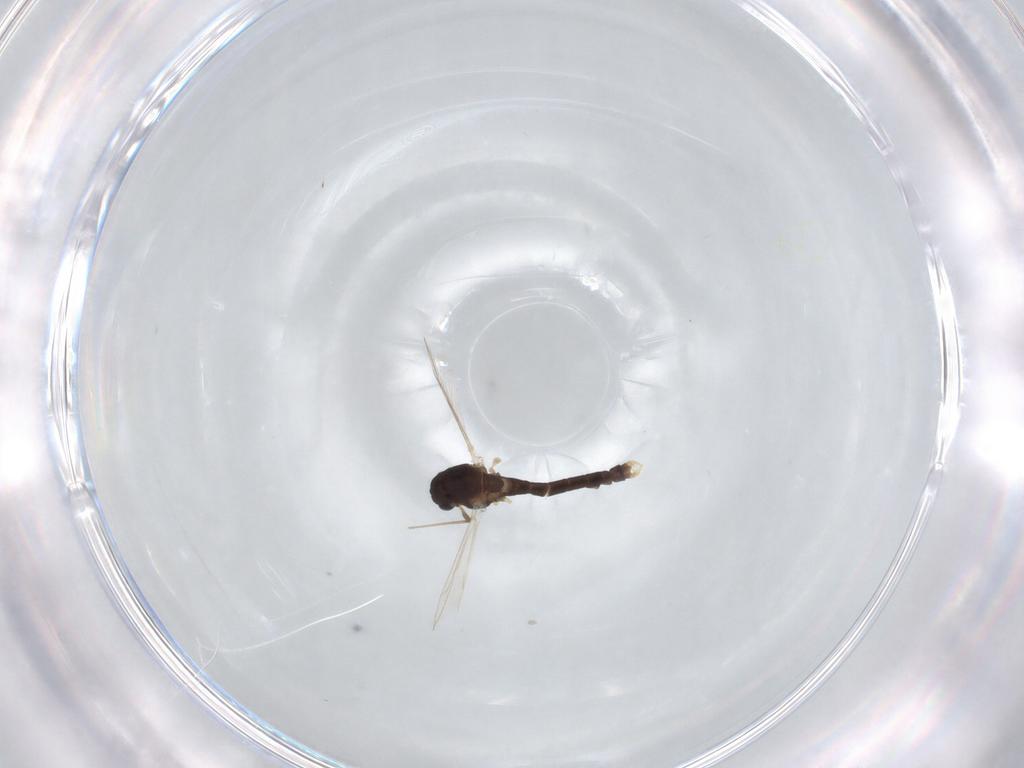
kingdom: Animalia
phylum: Arthropoda
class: Insecta
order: Diptera
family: Chironomidae
